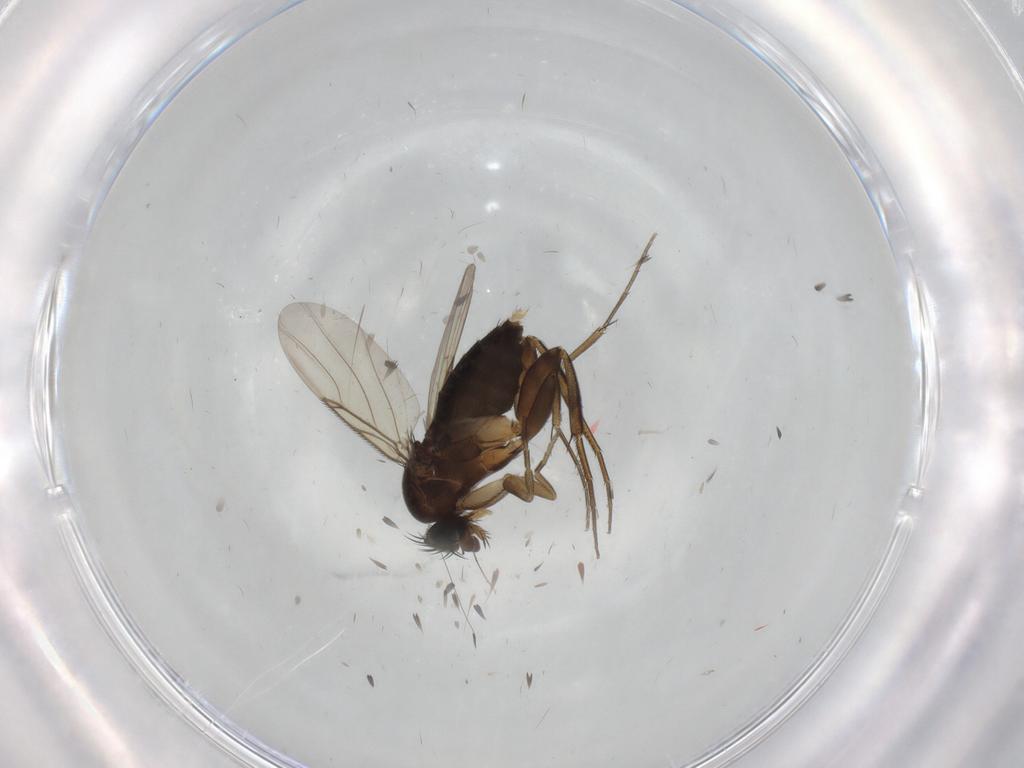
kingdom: Animalia
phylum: Arthropoda
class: Insecta
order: Diptera
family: Phoridae
